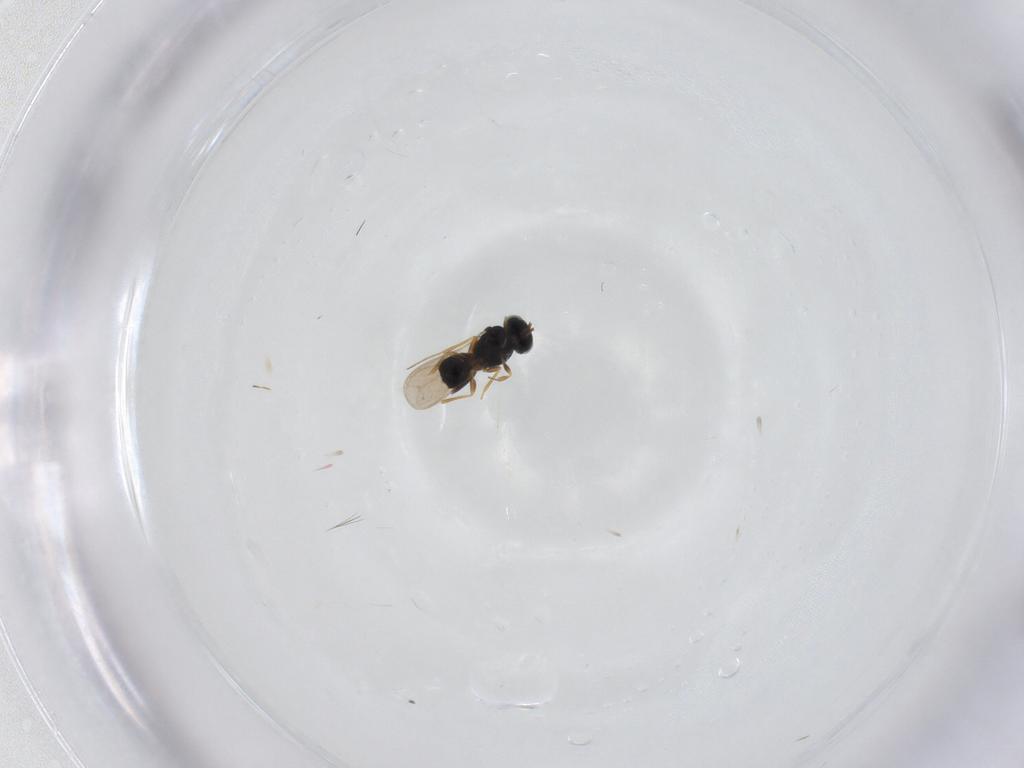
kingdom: Animalia
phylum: Arthropoda
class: Insecta
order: Hymenoptera
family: Scelionidae
